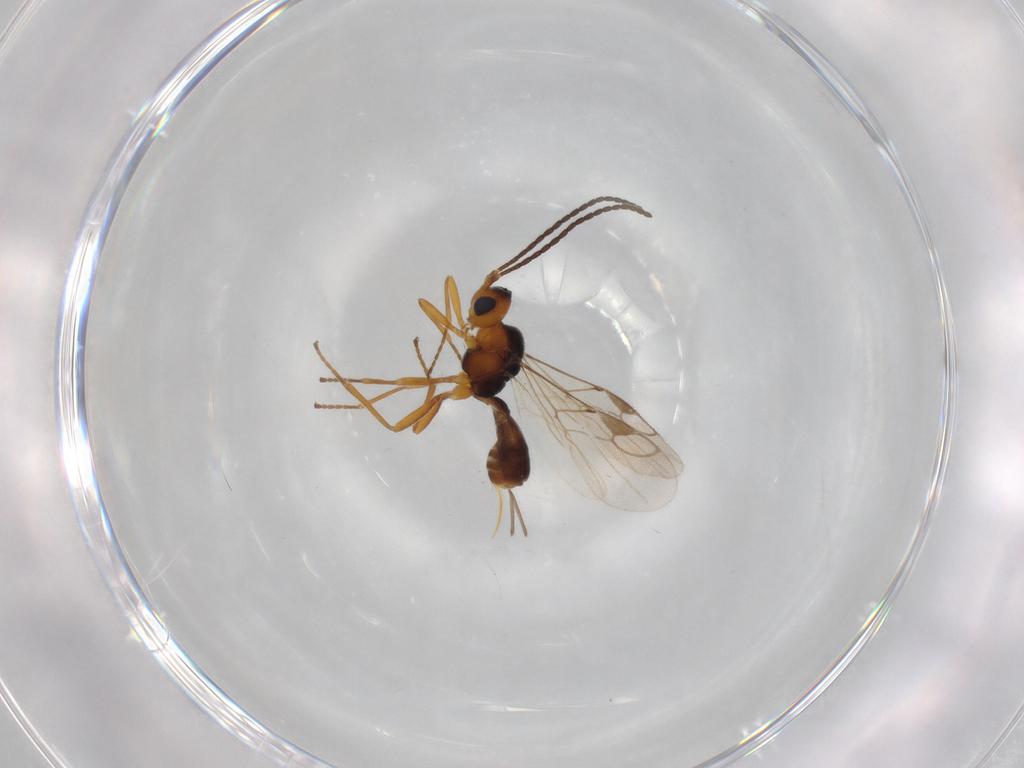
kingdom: Animalia
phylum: Arthropoda
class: Insecta
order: Hymenoptera
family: Braconidae
